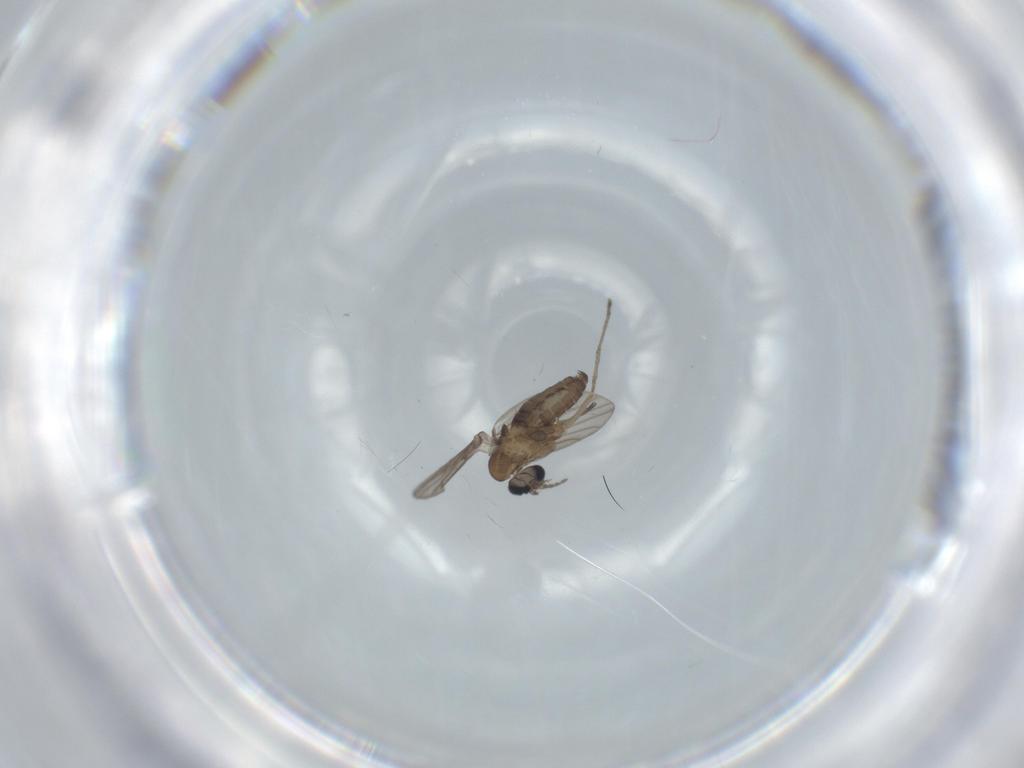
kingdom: Animalia
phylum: Arthropoda
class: Insecta
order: Diptera
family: Psychodidae
